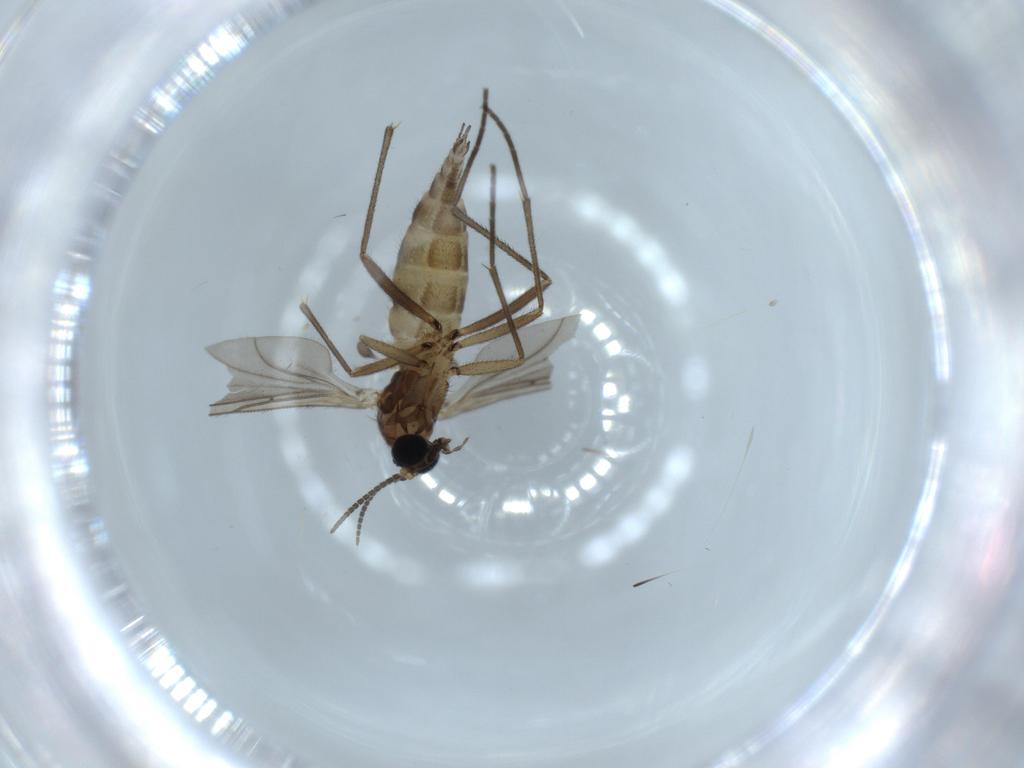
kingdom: Animalia
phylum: Arthropoda
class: Insecta
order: Diptera
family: Sciaridae
